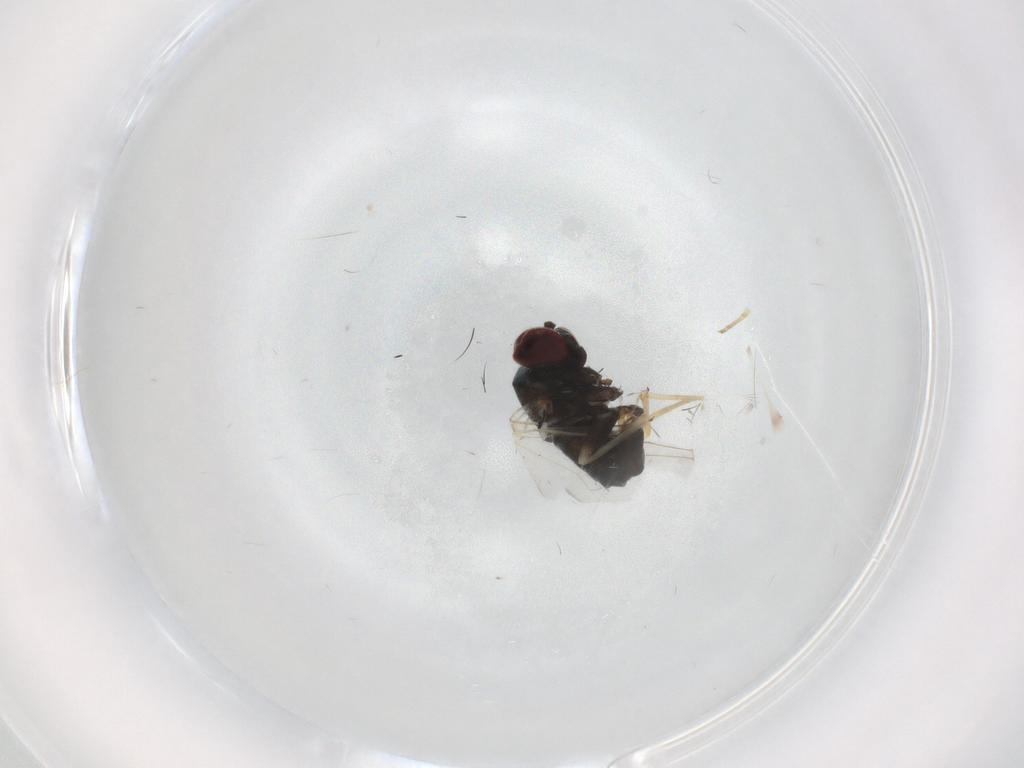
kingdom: Animalia
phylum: Arthropoda
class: Insecta
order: Diptera
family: Dolichopodidae
